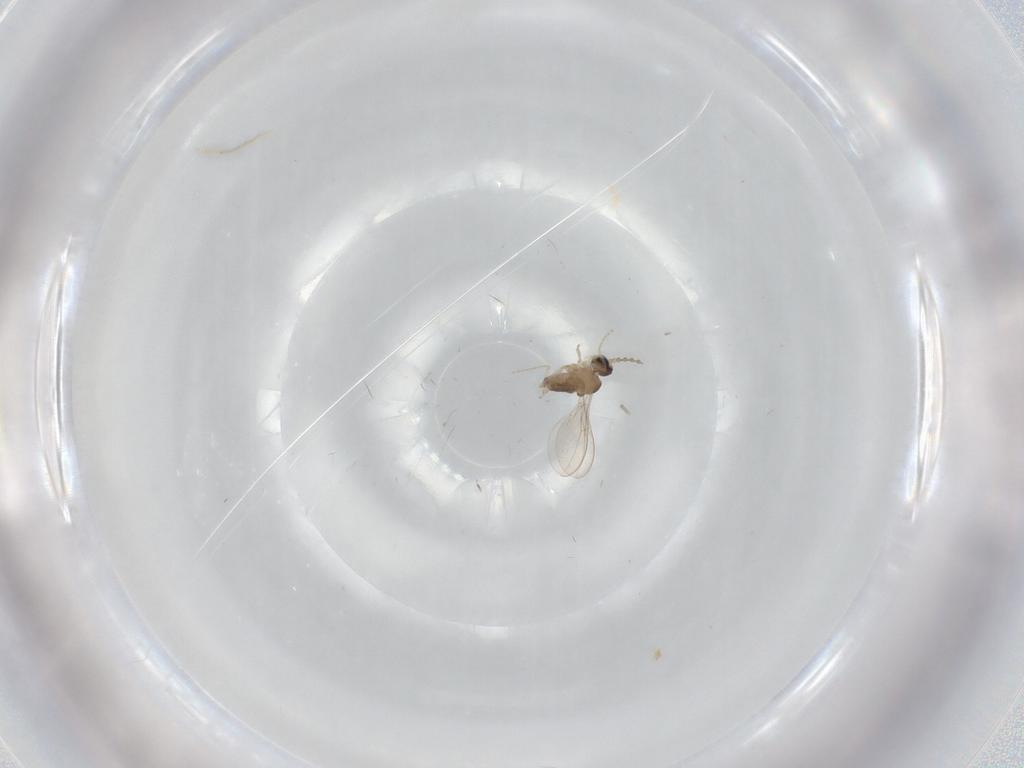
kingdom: Animalia
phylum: Arthropoda
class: Insecta
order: Diptera
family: Cecidomyiidae
